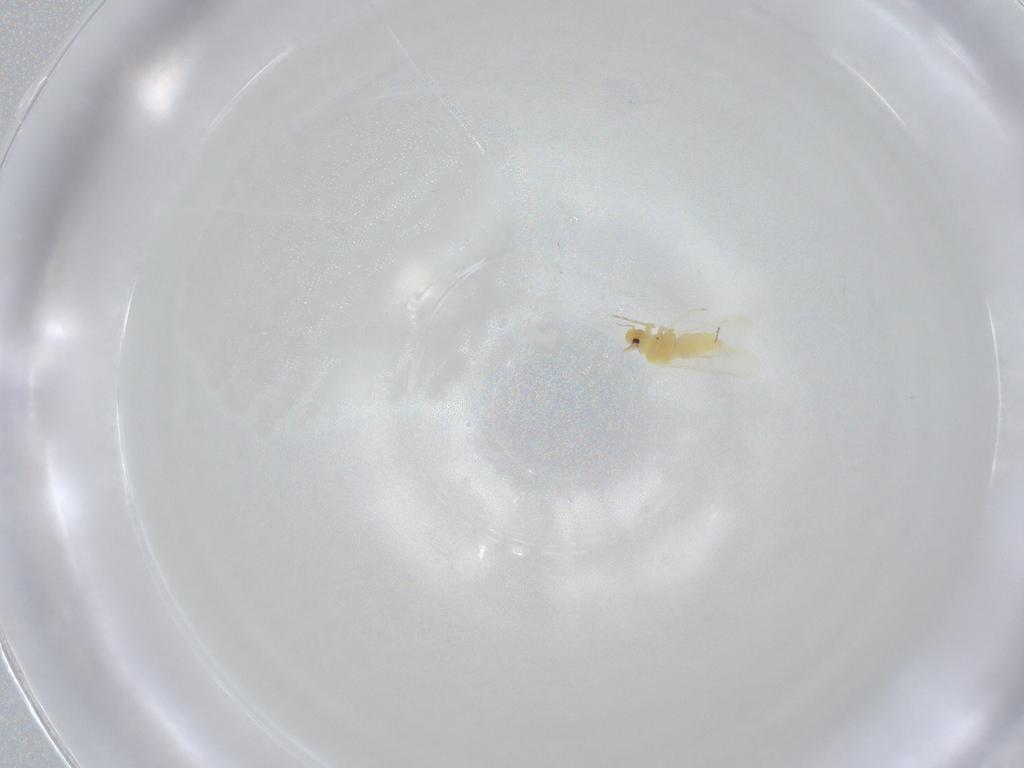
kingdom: Animalia
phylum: Arthropoda
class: Insecta
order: Hemiptera
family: Aleyrodidae
